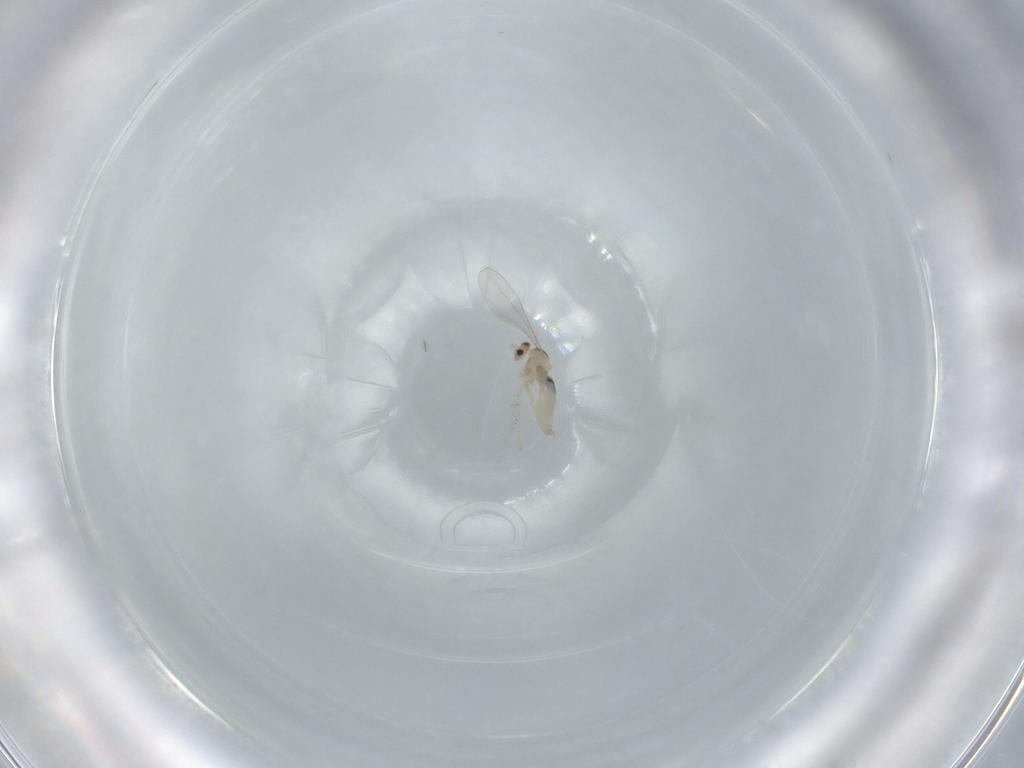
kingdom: Animalia
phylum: Arthropoda
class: Insecta
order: Diptera
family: Cecidomyiidae
